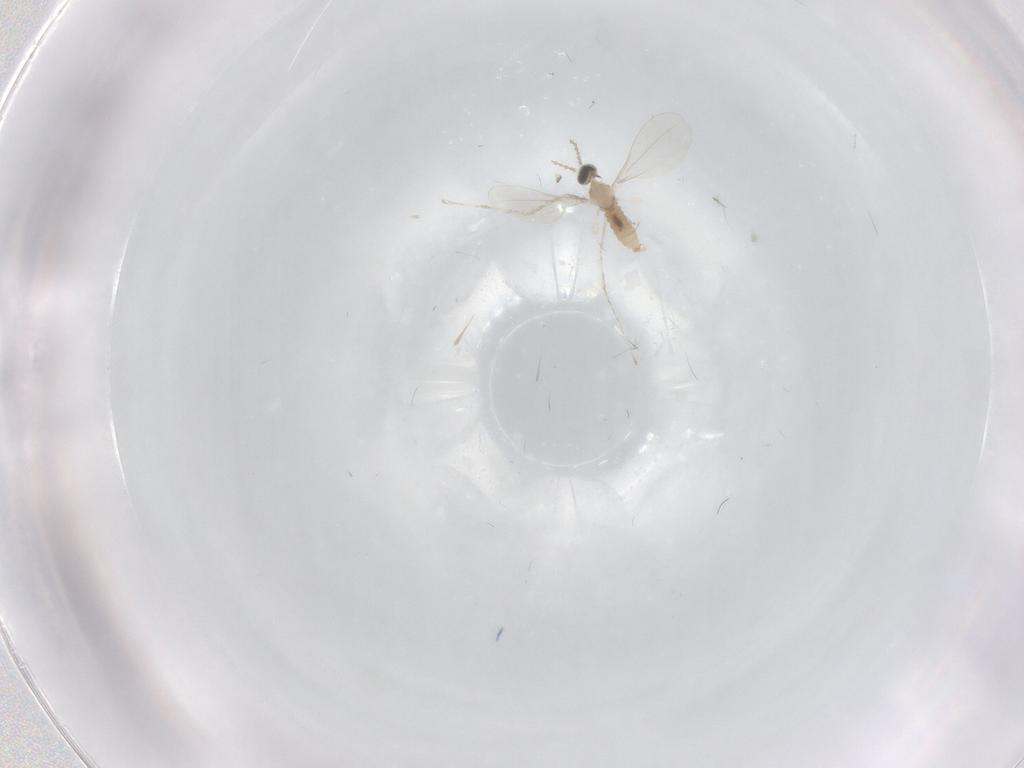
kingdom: Animalia
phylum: Arthropoda
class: Insecta
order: Diptera
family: Cecidomyiidae
